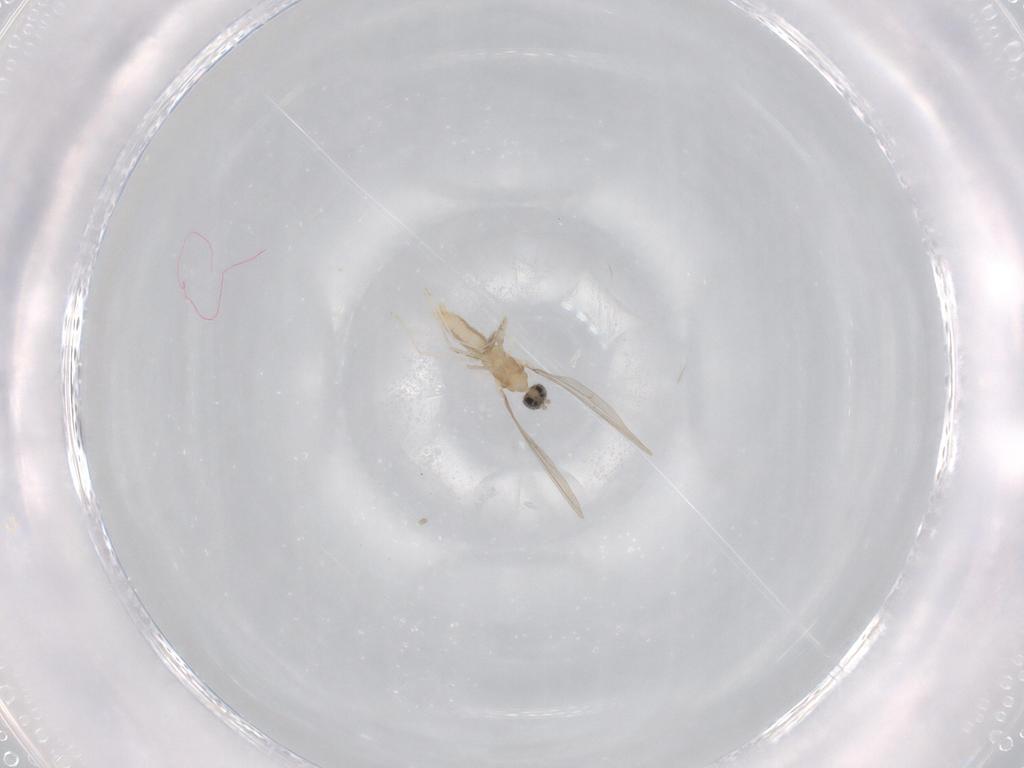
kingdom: Animalia
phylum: Arthropoda
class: Insecta
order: Diptera
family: Cecidomyiidae
